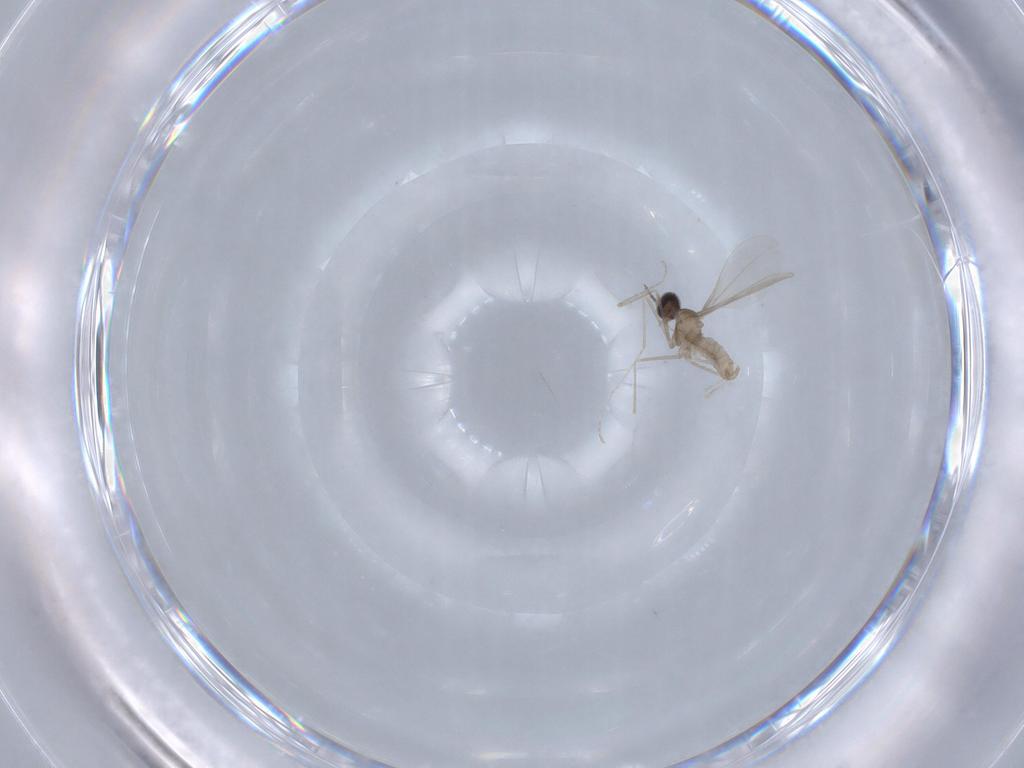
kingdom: Animalia
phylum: Arthropoda
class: Insecta
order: Diptera
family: Cecidomyiidae
